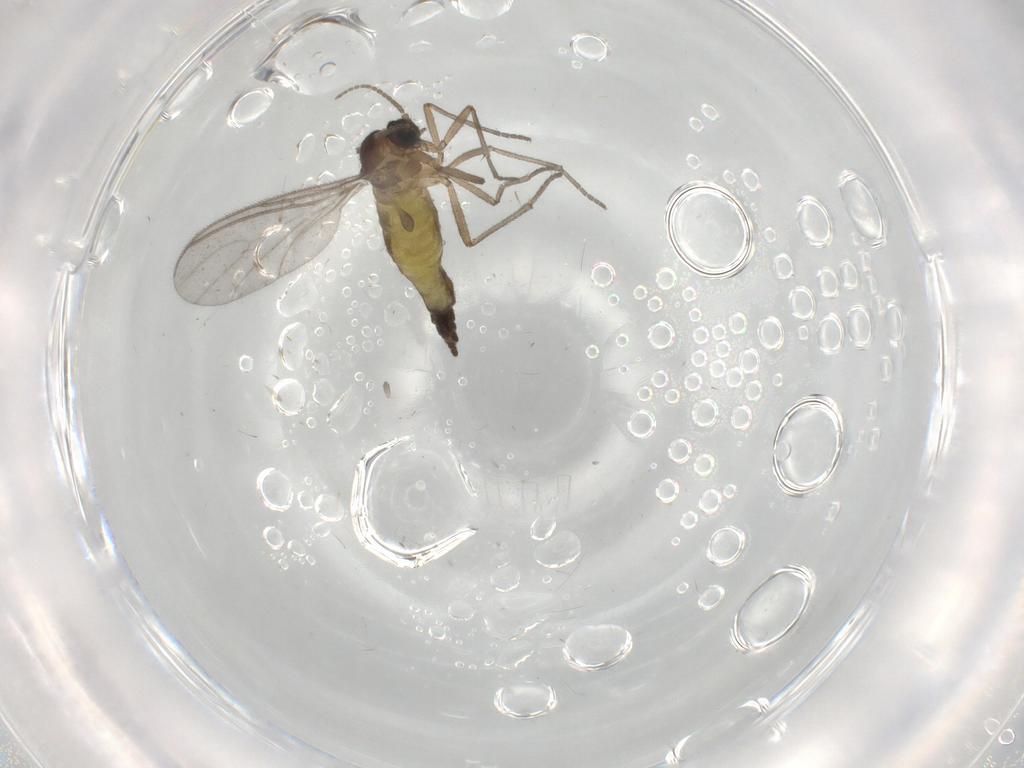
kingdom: Animalia
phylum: Arthropoda
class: Insecta
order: Diptera
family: Sciaridae
